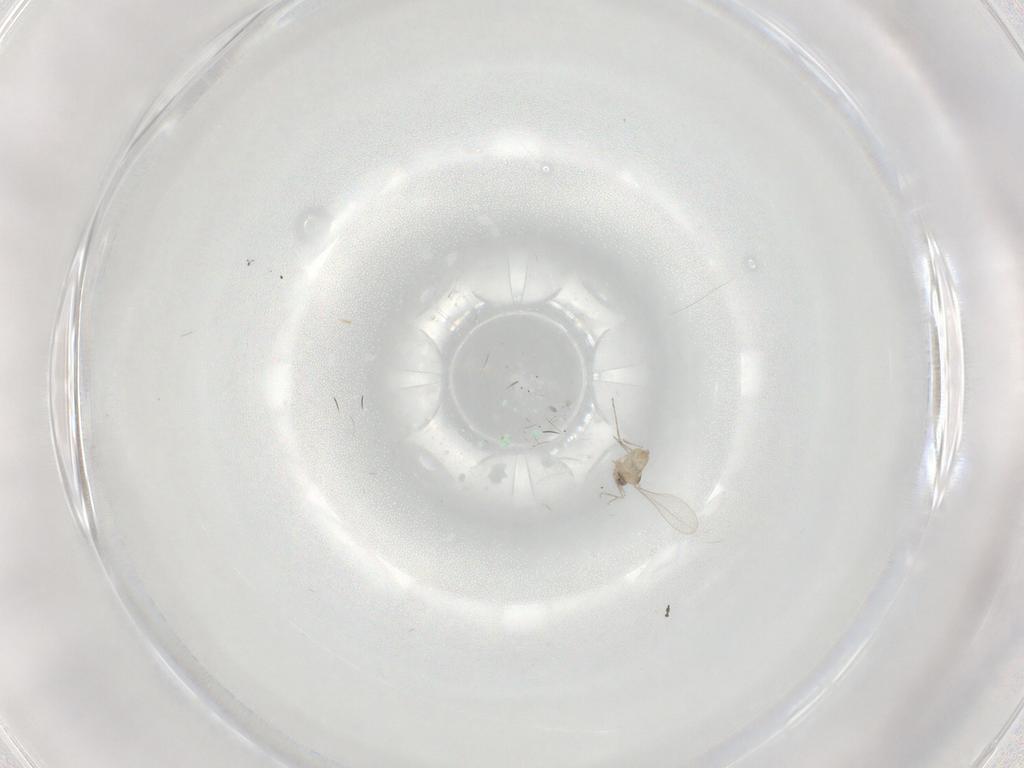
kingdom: Animalia
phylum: Arthropoda
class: Insecta
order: Diptera
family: Cecidomyiidae
